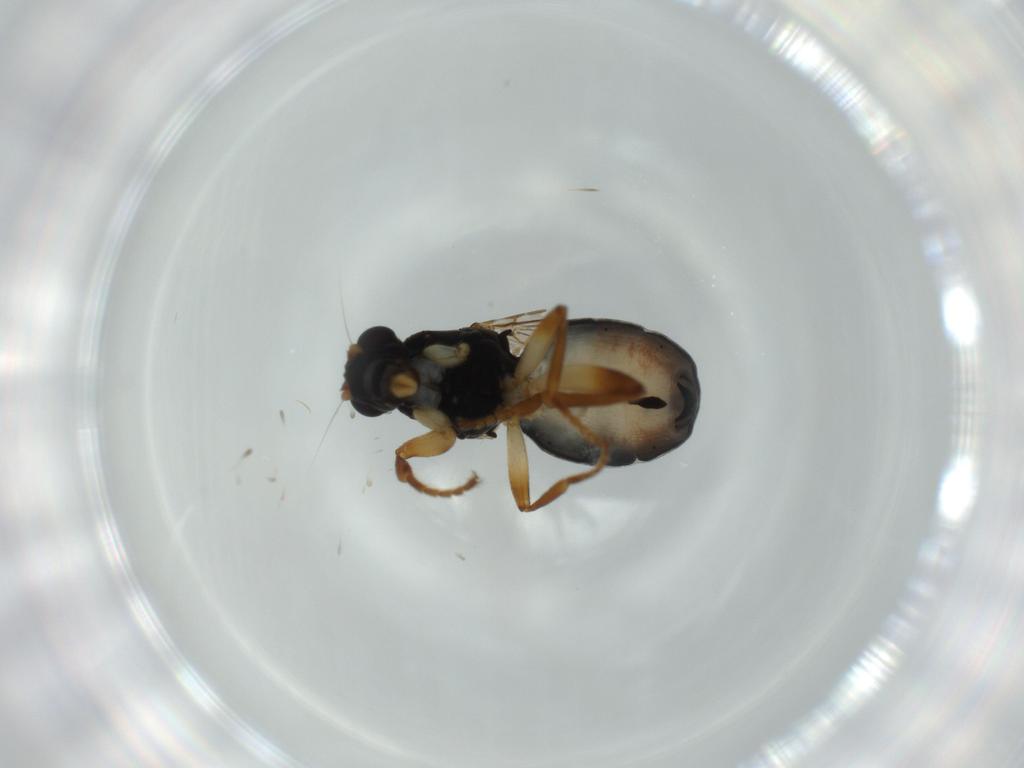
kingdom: Animalia
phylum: Arthropoda
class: Insecta
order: Diptera
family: Sphaeroceridae
